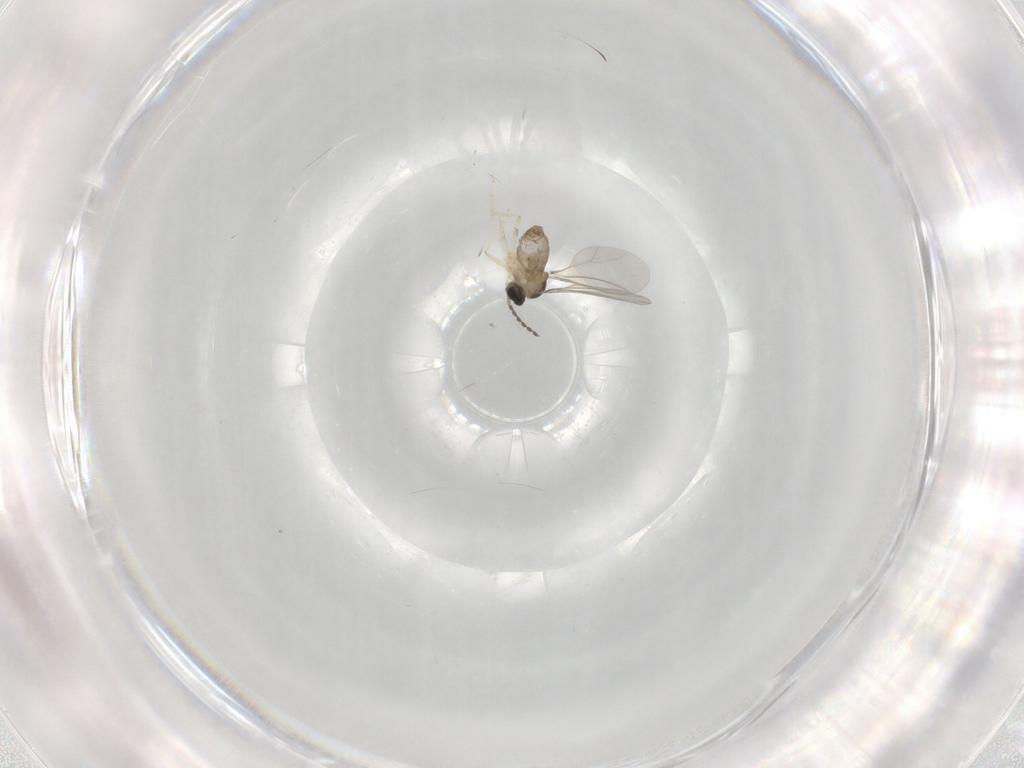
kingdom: Animalia
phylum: Arthropoda
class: Insecta
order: Diptera
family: Cecidomyiidae
